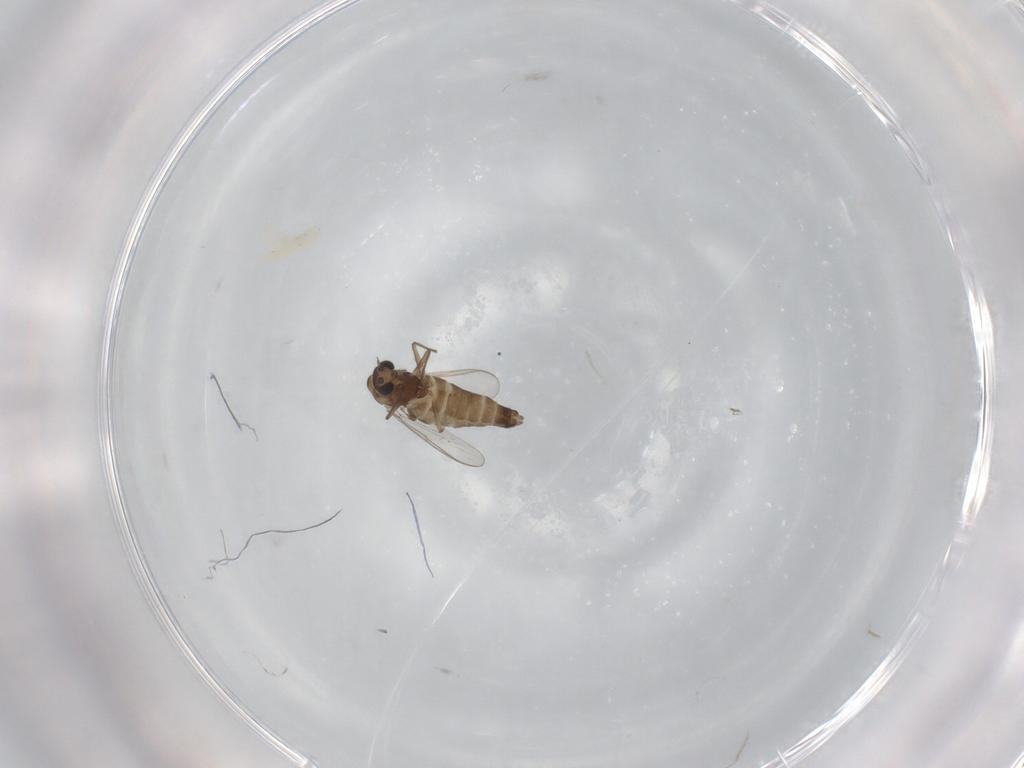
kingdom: Animalia
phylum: Arthropoda
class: Insecta
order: Diptera
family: Chironomidae
